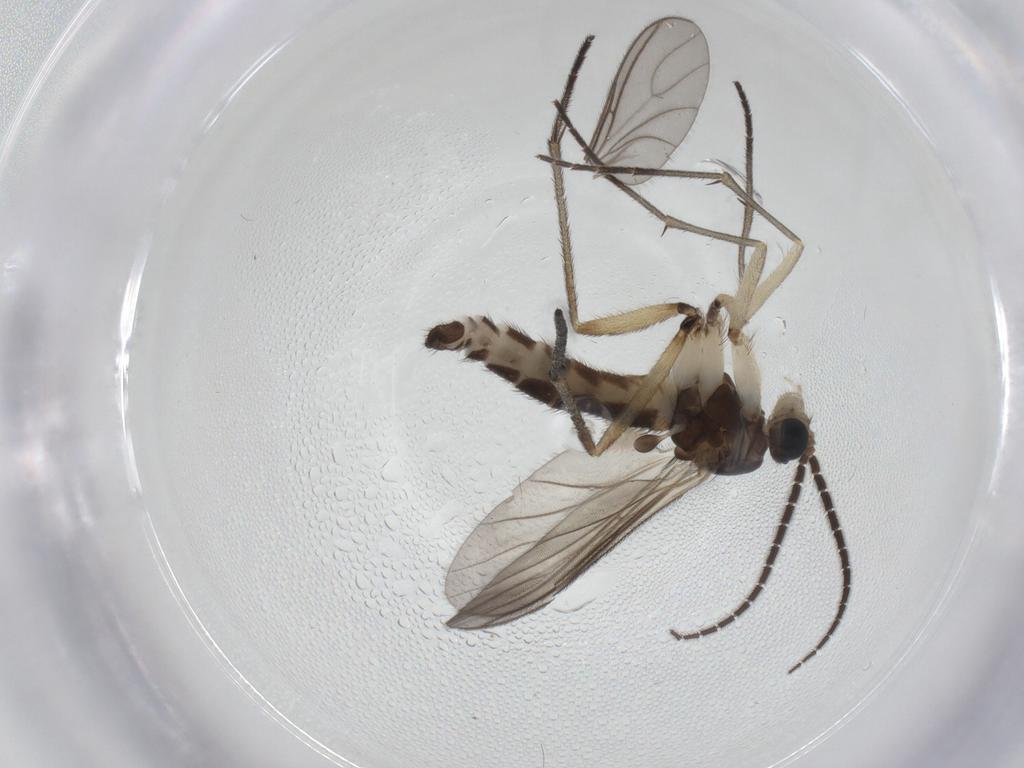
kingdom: Animalia
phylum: Arthropoda
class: Insecta
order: Diptera
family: Sciaridae
